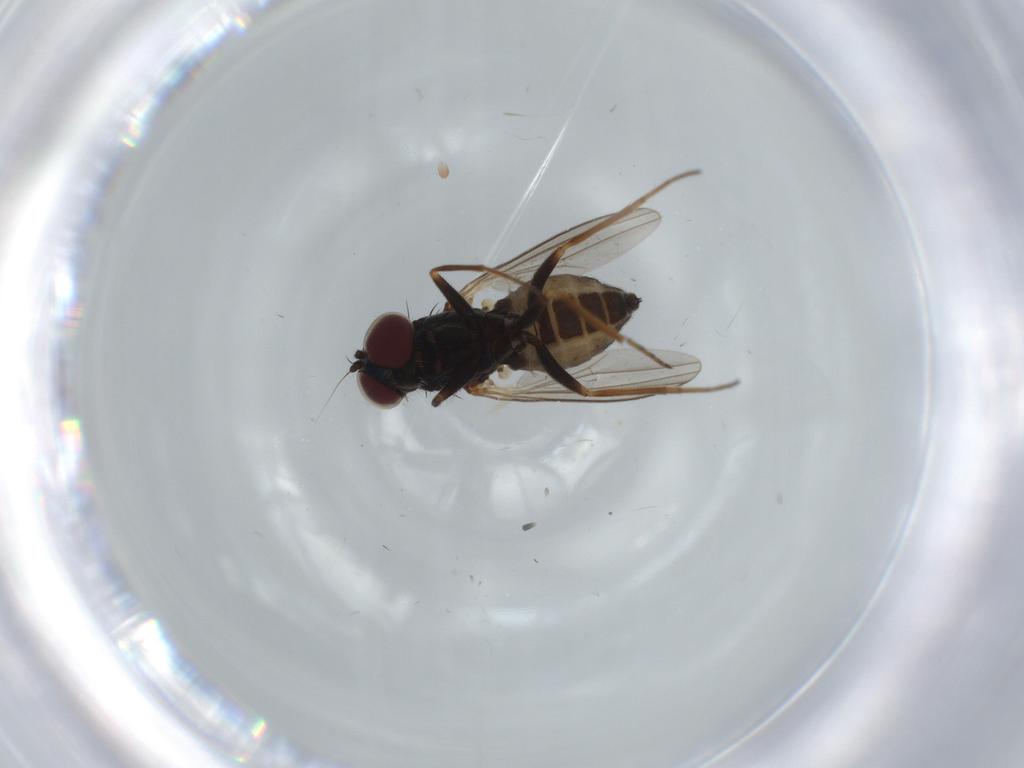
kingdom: Animalia
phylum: Arthropoda
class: Insecta
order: Diptera
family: Dolichopodidae
